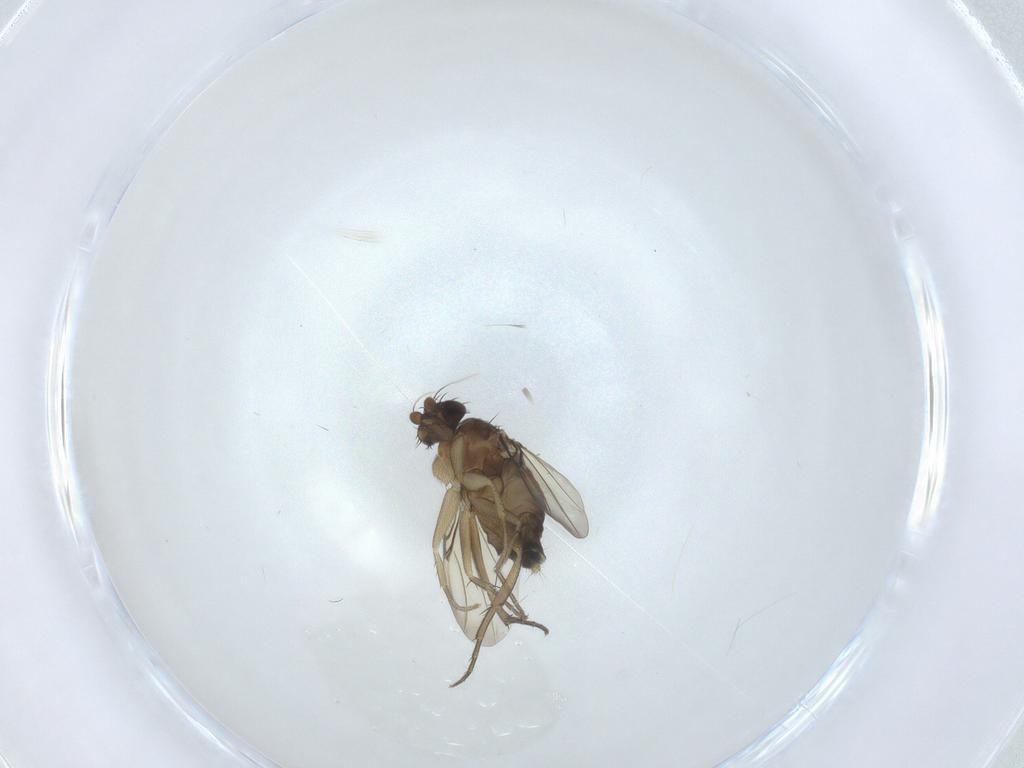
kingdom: Animalia
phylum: Arthropoda
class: Insecta
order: Diptera
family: Phoridae
